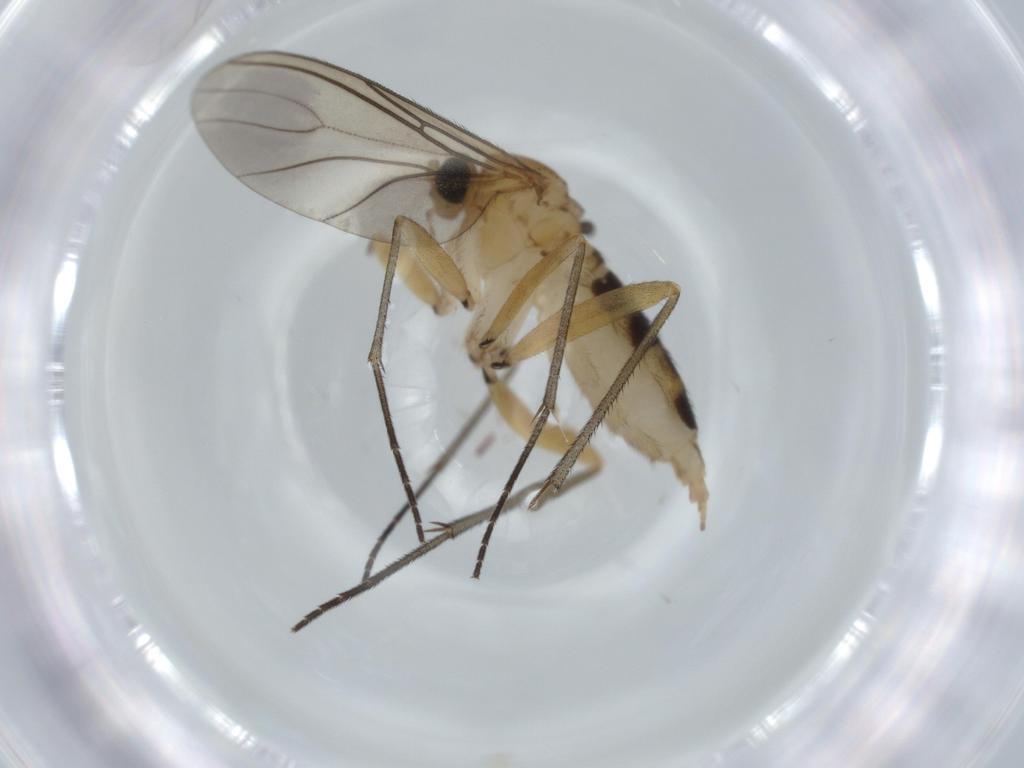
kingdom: Animalia
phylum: Arthropoda
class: Insecta
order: Diptera
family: Sciaridae
